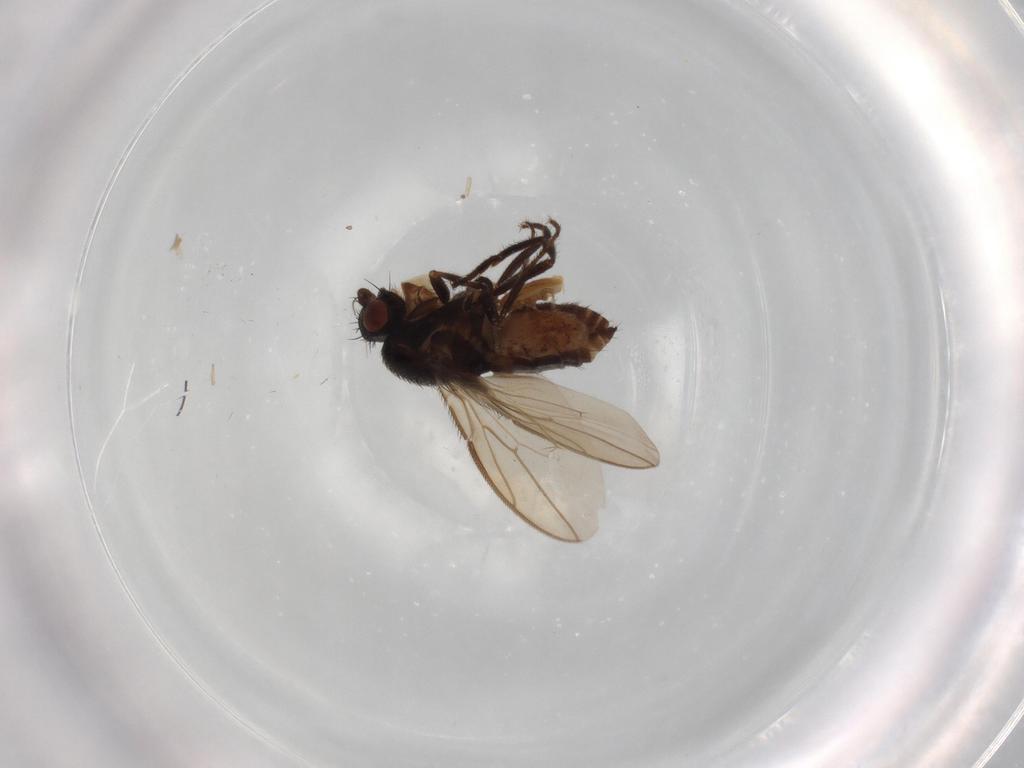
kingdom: Animalia
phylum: Arthropoda
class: Insecta
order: Diptera
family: Sphaeroceridae
